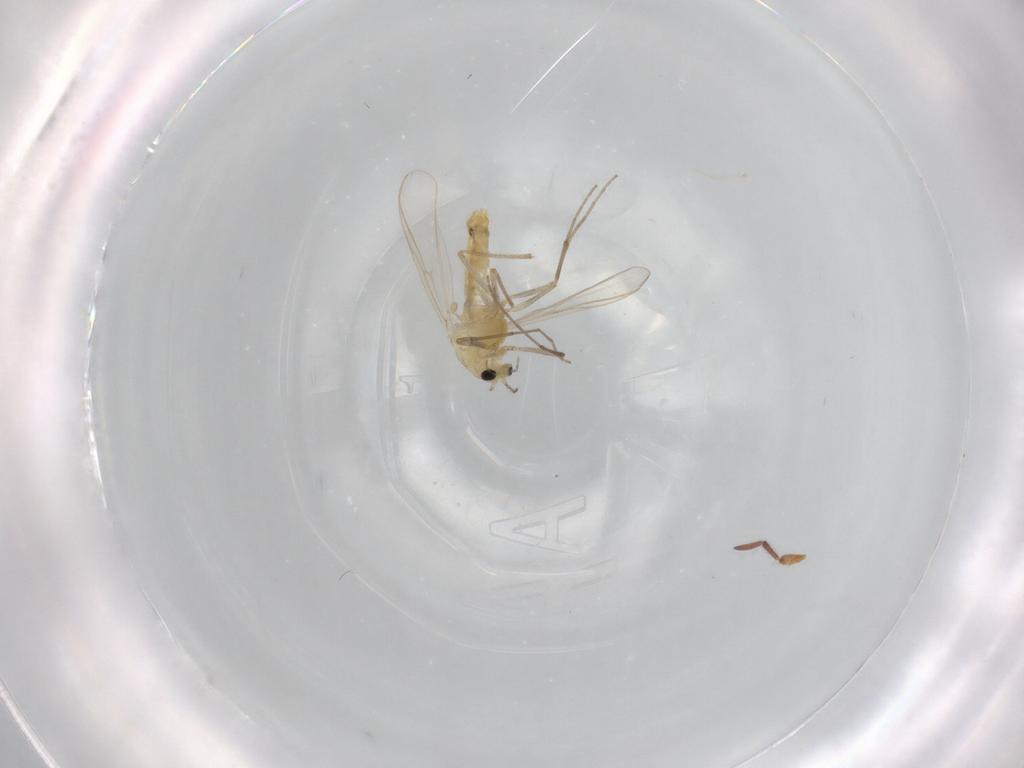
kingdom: Animalia
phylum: Arthropoda
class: Insecta
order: Diptera
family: Chironomidae
